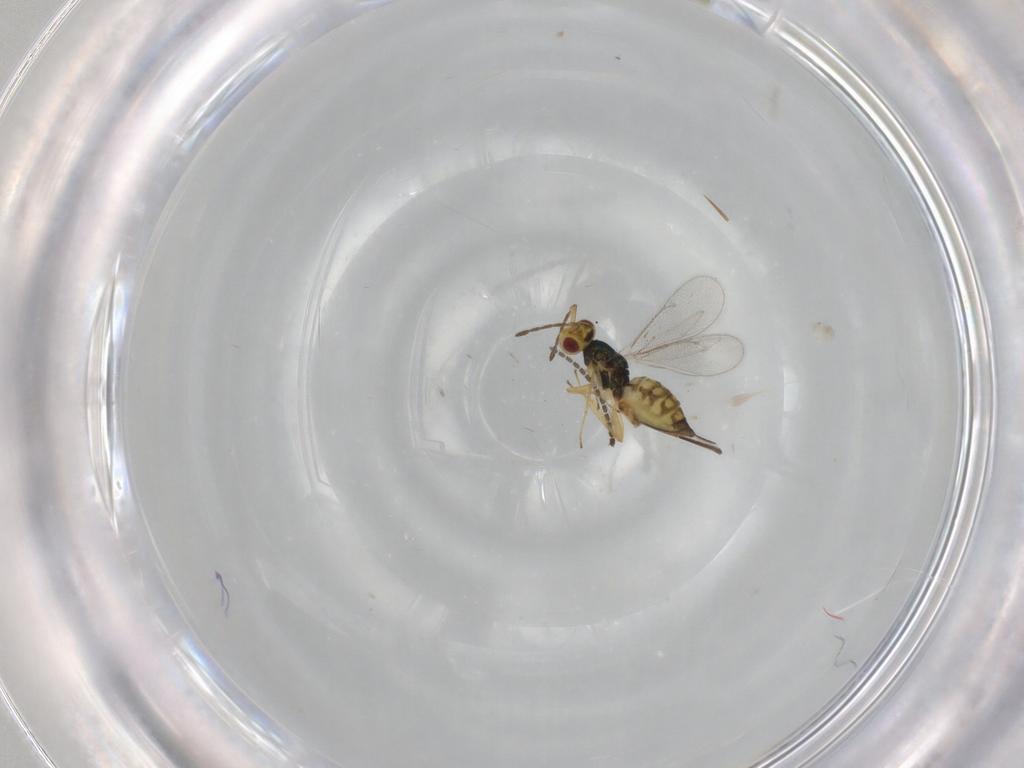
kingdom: Animalia
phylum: Arthropoda
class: Insecta
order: Hymenoptera
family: Eulophidae
